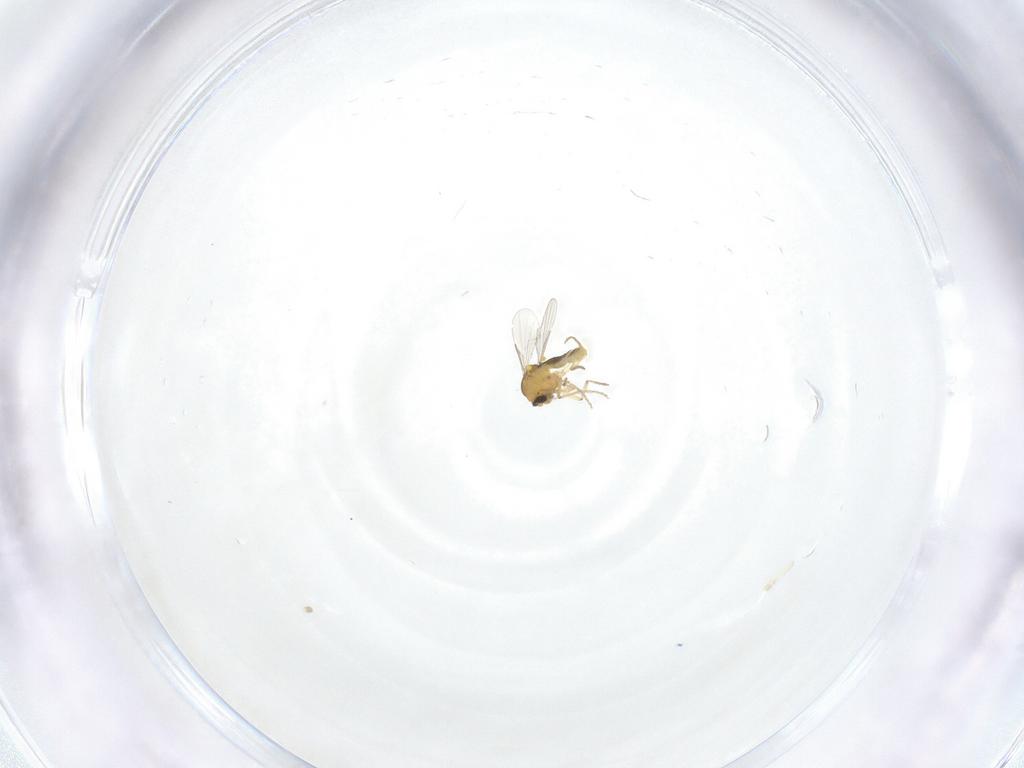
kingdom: Animalia
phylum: Arthropoda
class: Insecta
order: Diptera
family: Ceratopogonidae
